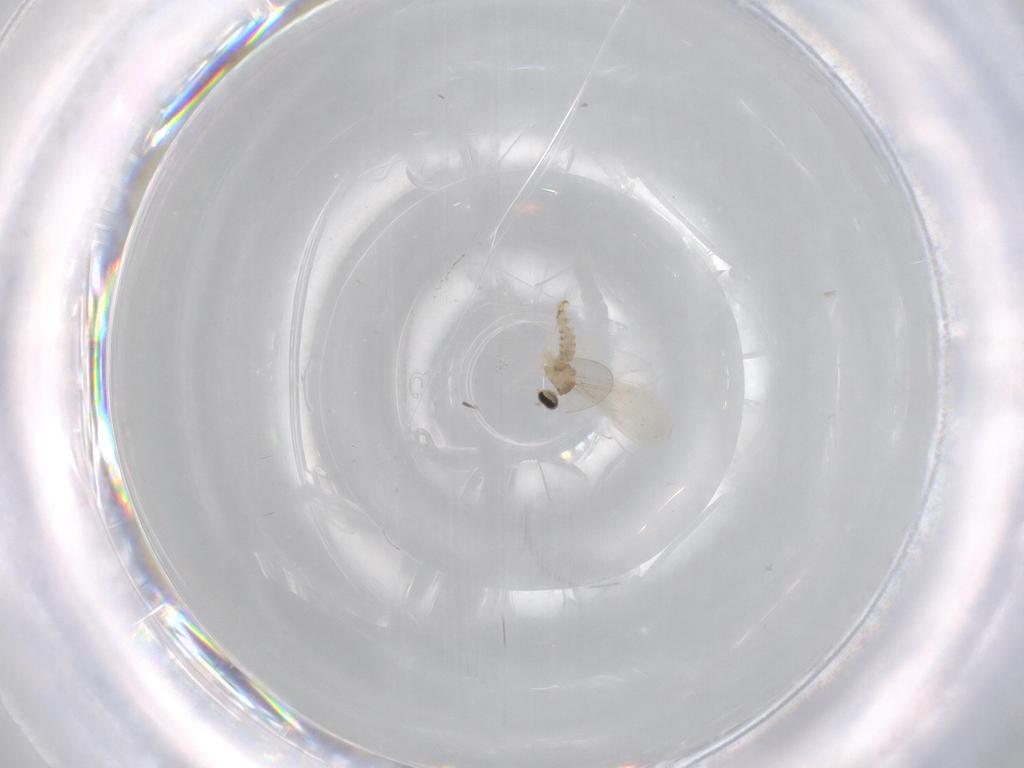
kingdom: Animalia
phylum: Arthropoda
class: Insecta
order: Diptera
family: Cecidomyiidae
